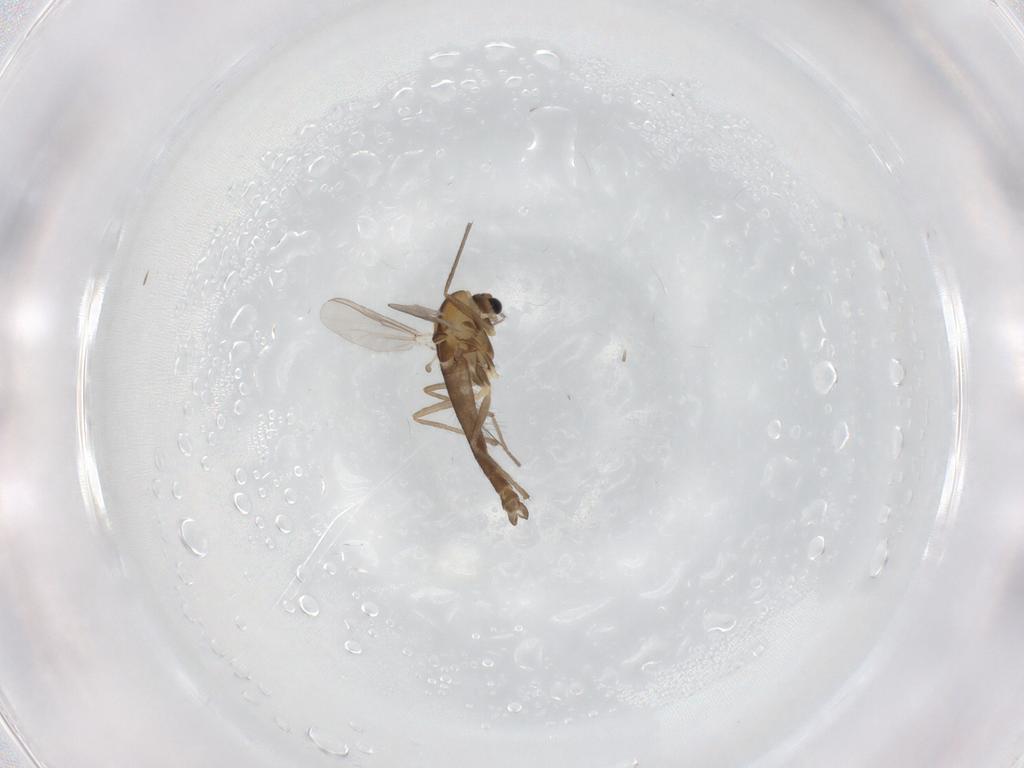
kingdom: Animalia
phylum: Arthropoda
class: Insecta
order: Diptera
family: Chironomidae
